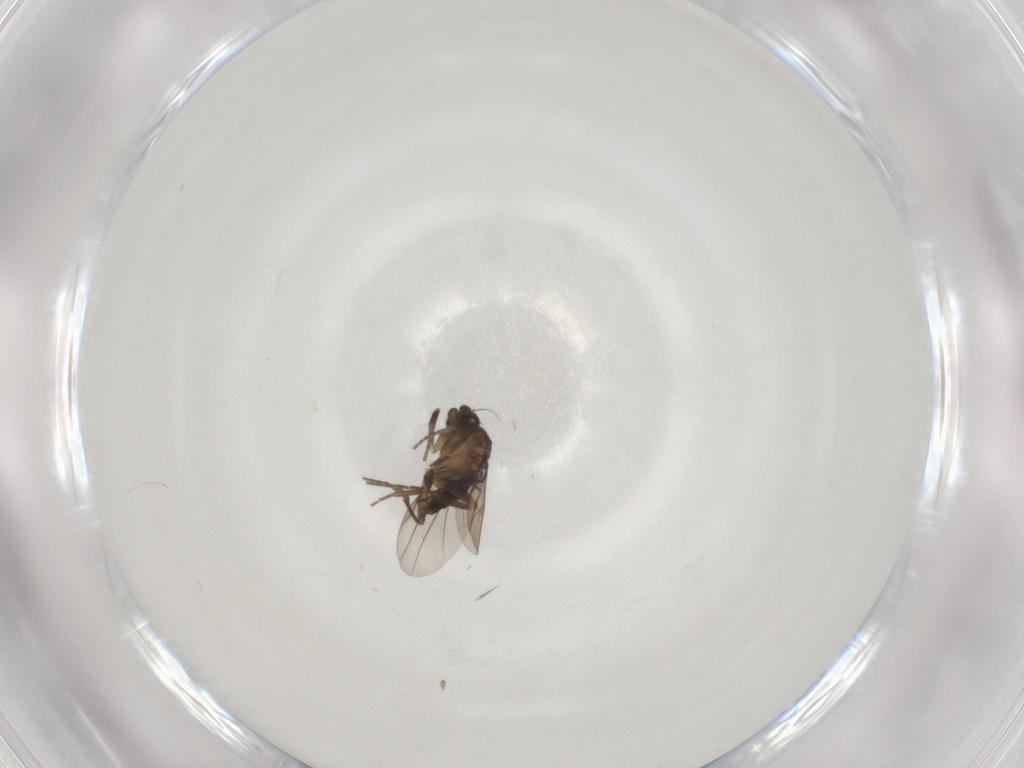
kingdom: Animalia
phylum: Arthropoda
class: Insecta
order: Diptera
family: Phoridae
